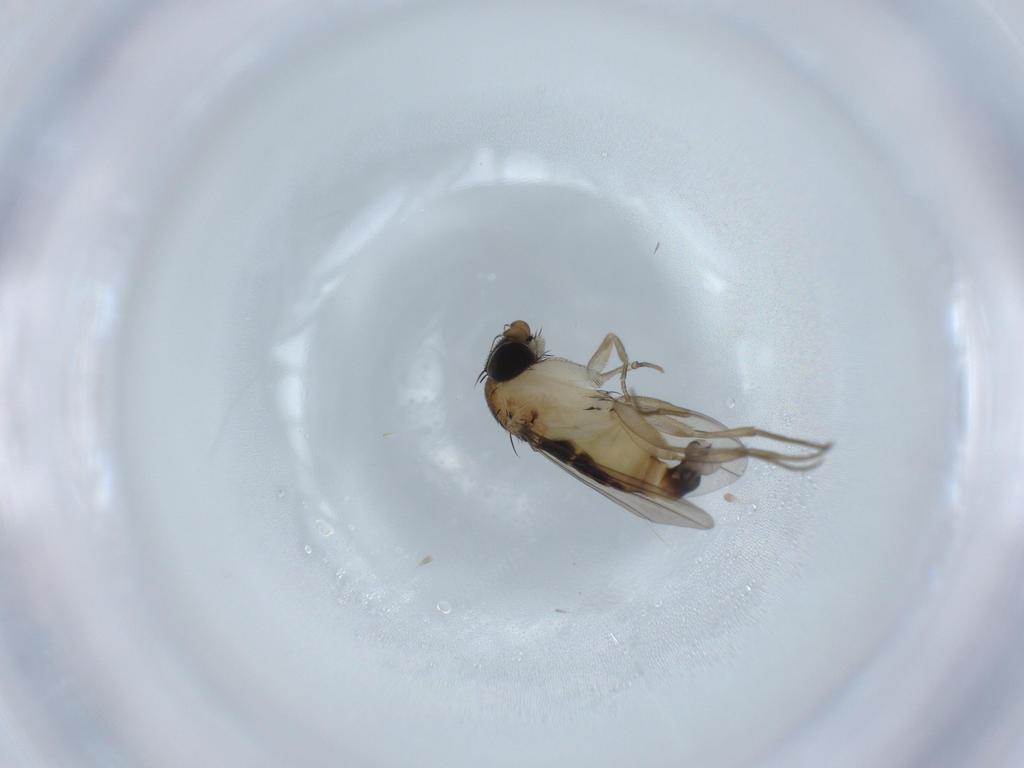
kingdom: Animalia
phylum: Arthropoda
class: Insecta
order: Diptera
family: Phoridae
